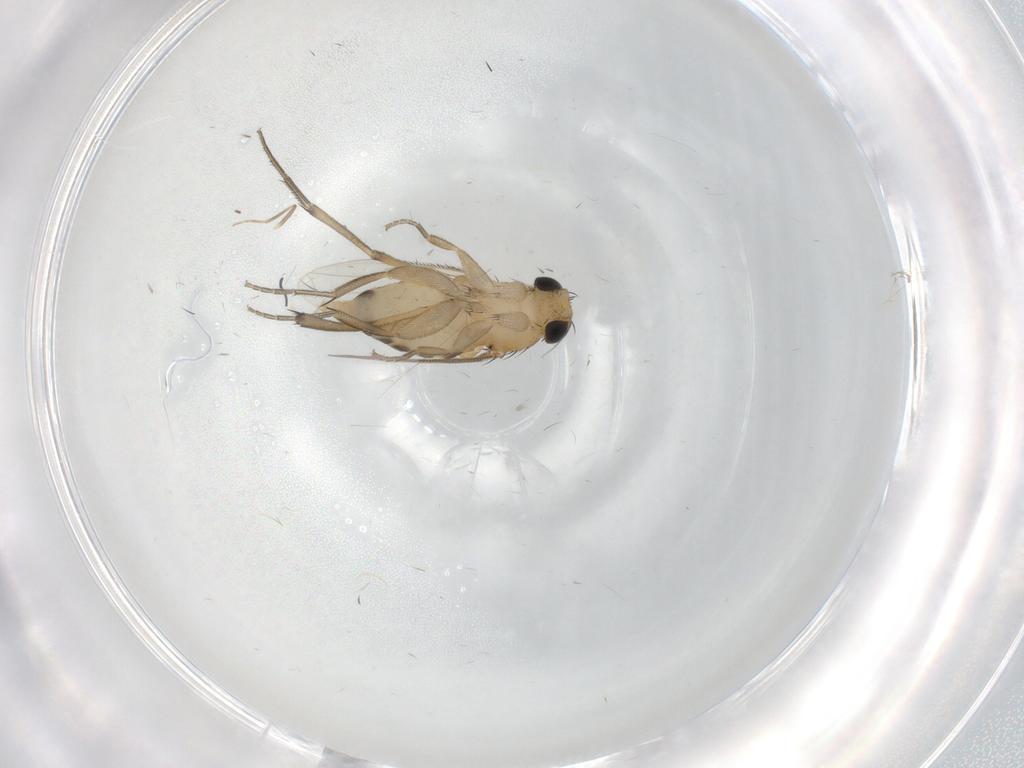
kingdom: Animalia
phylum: Arthropoda
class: Insecta
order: Diptera
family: Phoridae
